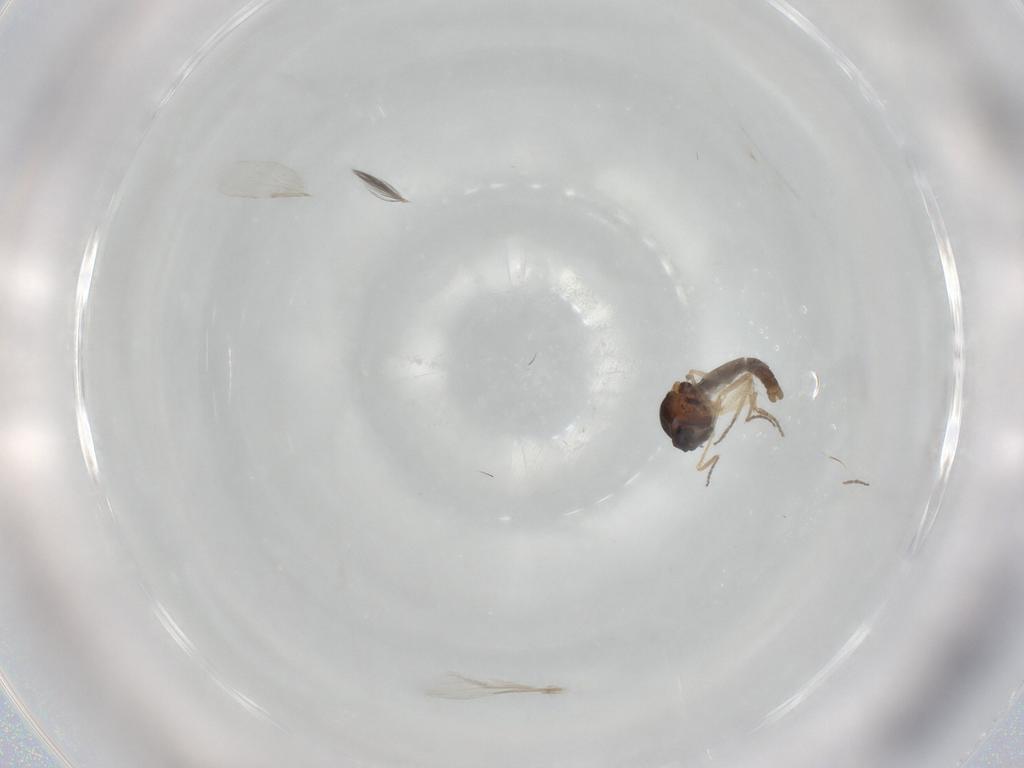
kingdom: Animalia
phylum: Arthropoda
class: Insecta
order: Diptera
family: Ceratopogonidae
